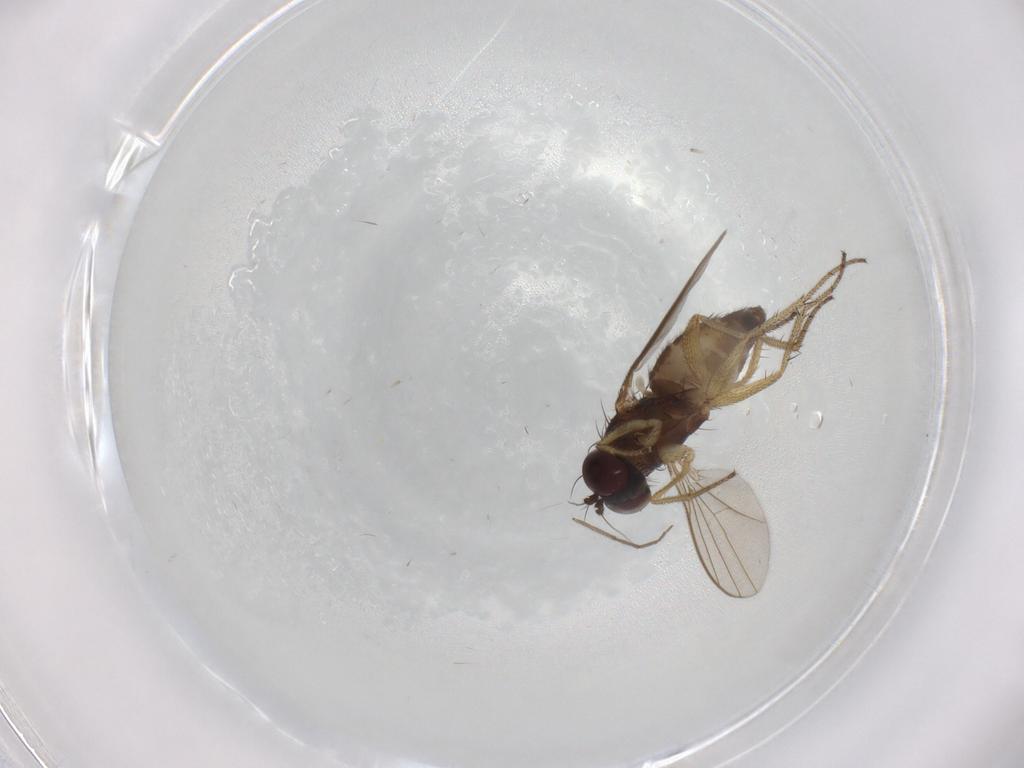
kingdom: Animalia
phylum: Arthropoda
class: Insecta
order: Diptera
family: Dolichopodidae
